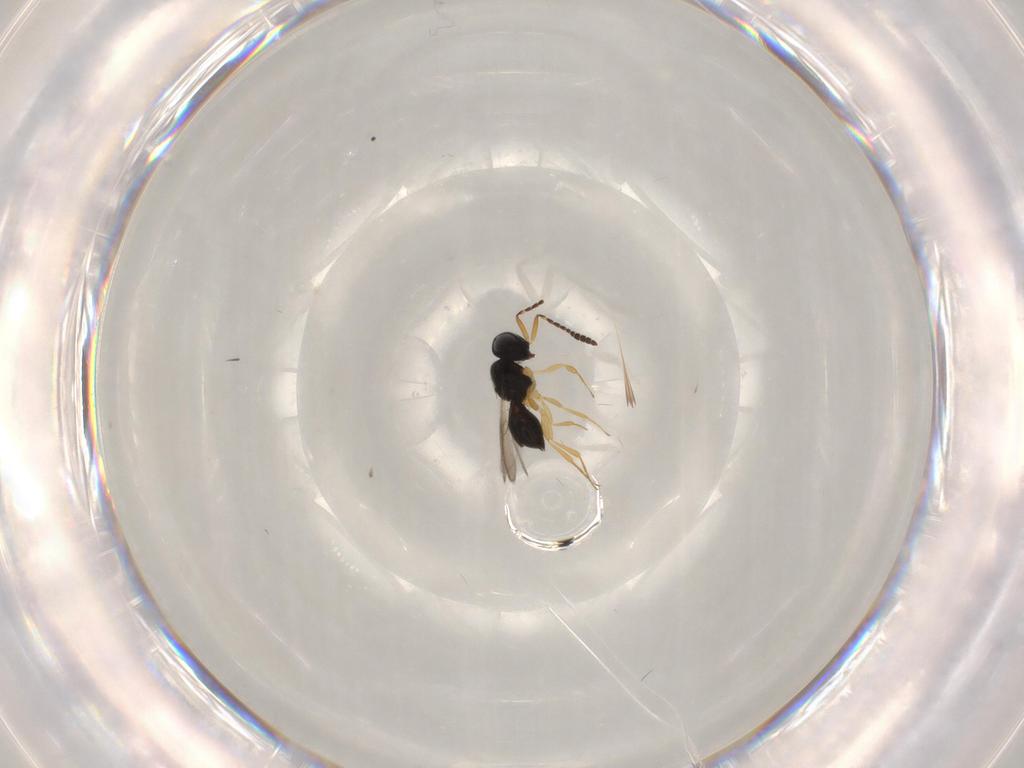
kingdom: Animalia
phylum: Arthropoda
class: Insecta
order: Hymenoptera
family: Scelionidae
